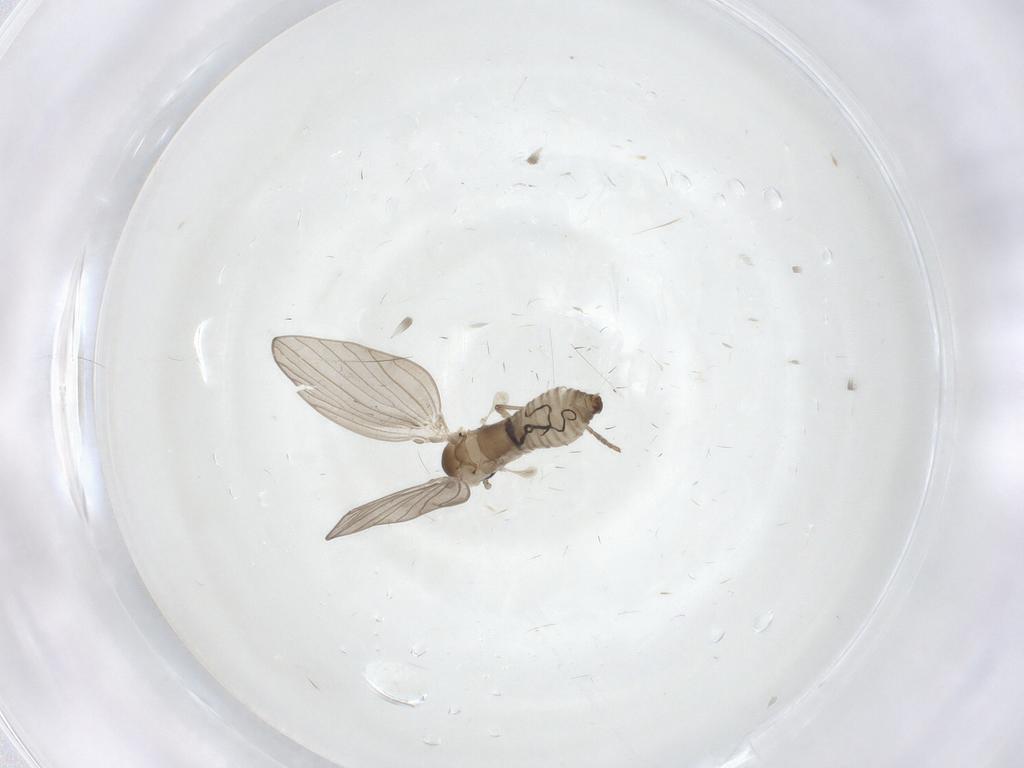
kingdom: Animalia
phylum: Arthropoda
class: Insecta
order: Diptera
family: Psychodidae
